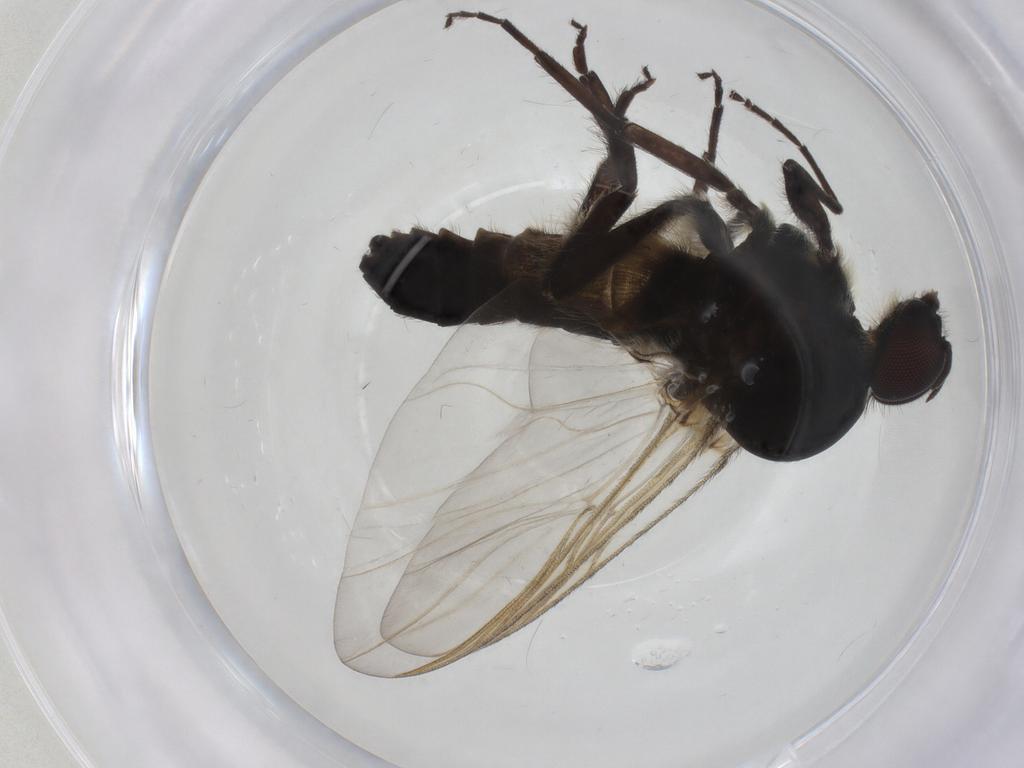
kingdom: Animalia
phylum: Arthropoda
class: Insecta
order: Diptera
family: Simuliidae
